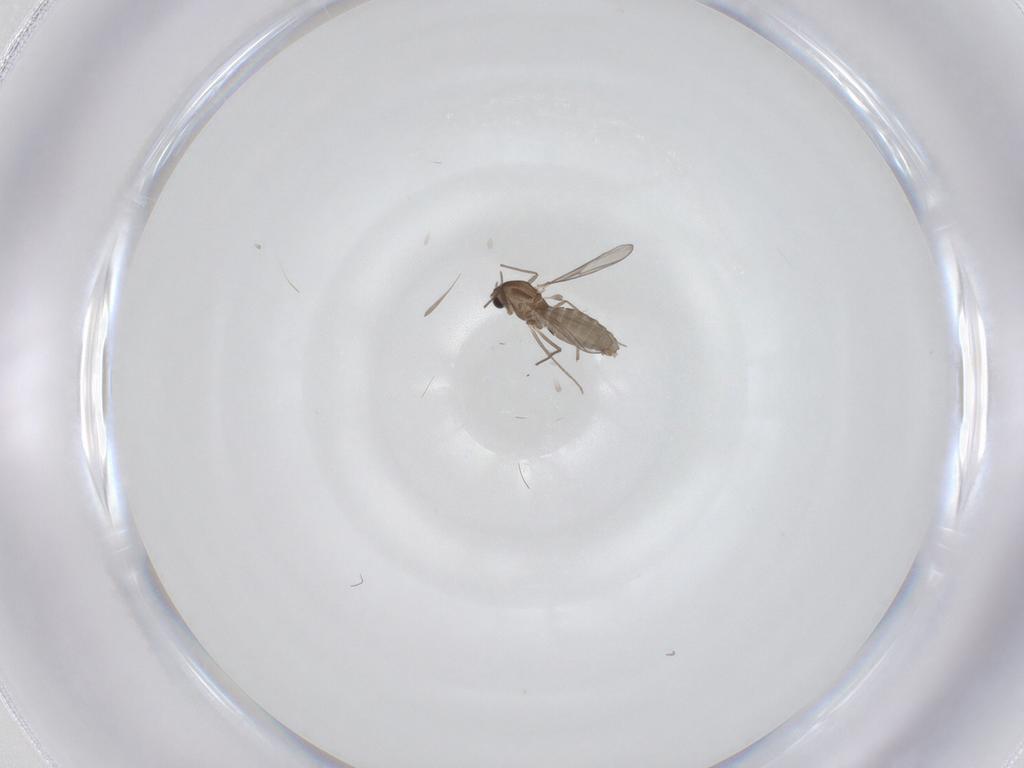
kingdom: Animalia
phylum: Arthropoda
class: Insecta
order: Diptera
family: Chironomidae
